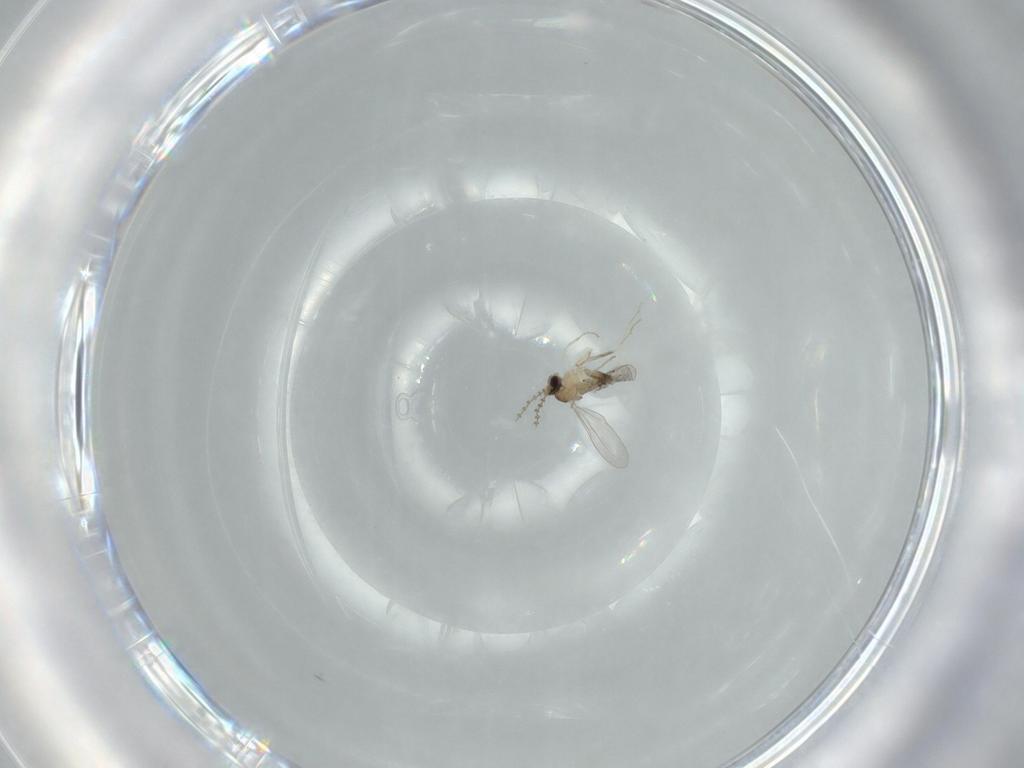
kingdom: Animalia
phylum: Arthropoda
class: Insecta
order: Diptera
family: Cecidomyiidae
